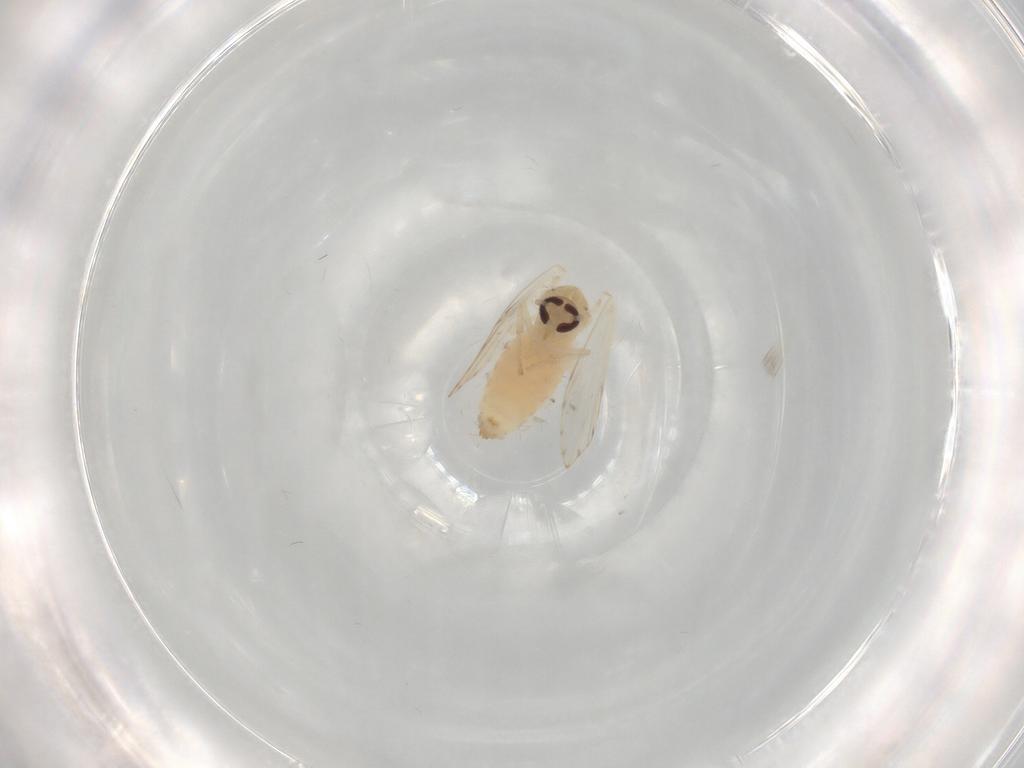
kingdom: Animalia
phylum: Arthropoda
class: Insecta
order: Diptera
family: Psychodidae
